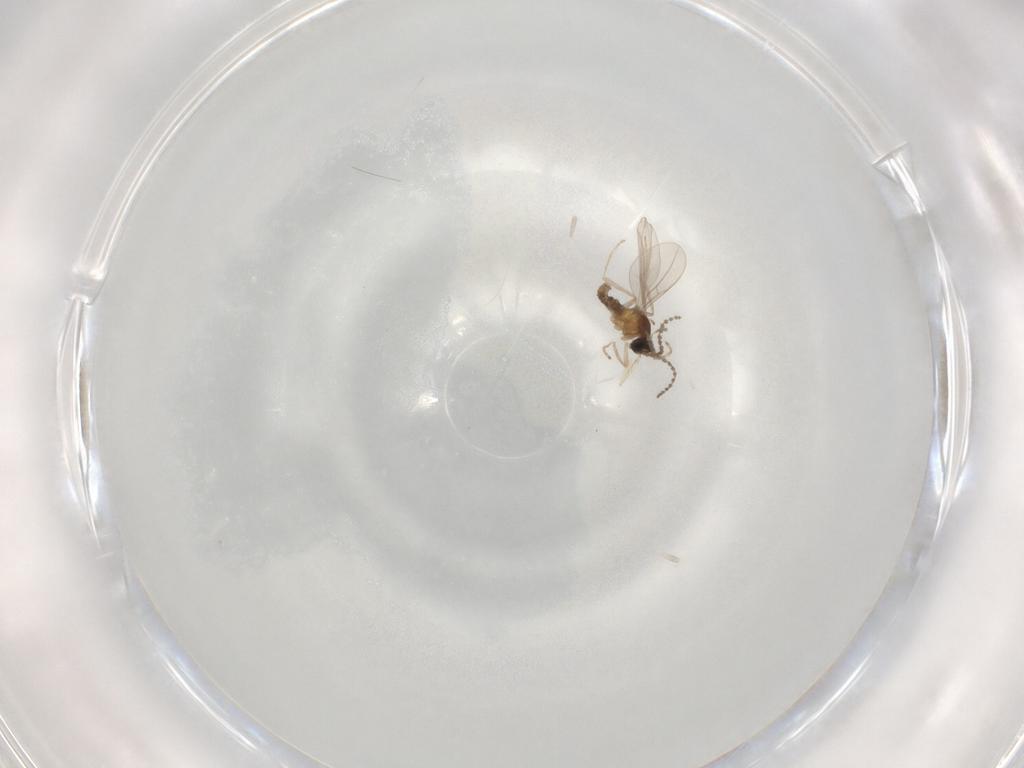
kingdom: Animalia
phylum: Arthropoda
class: Insecta
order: Diptera
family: Cecidomyiidae
